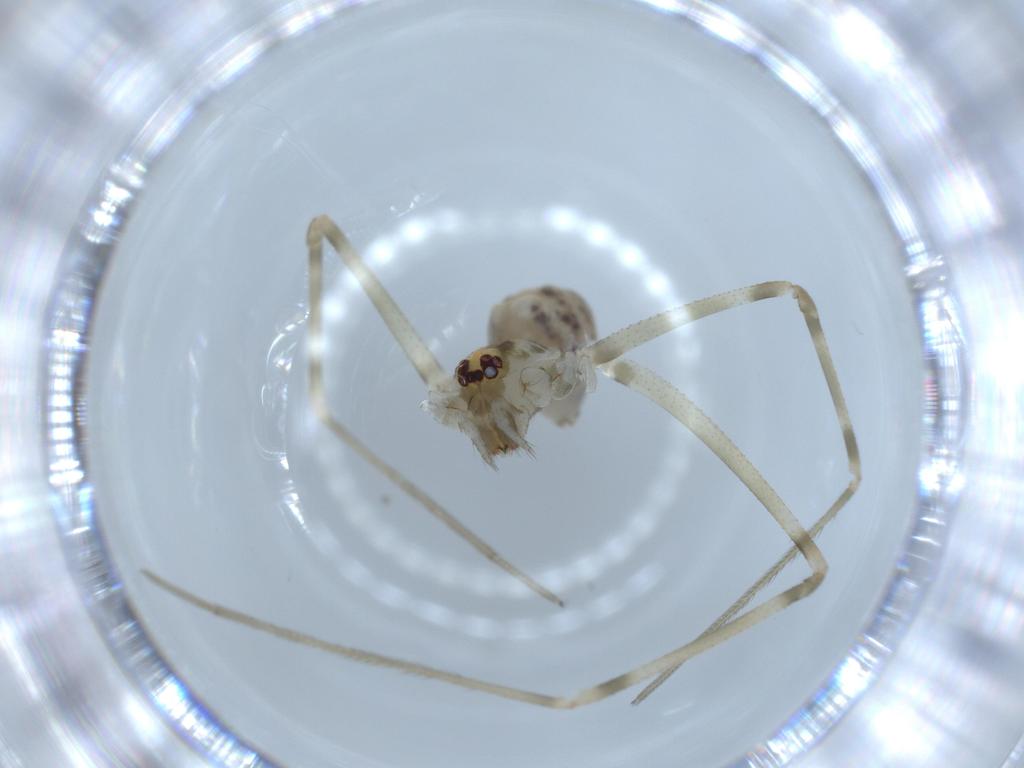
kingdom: Animalia
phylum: Arthropoda
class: Arachnida
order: Araneae
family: Pholcidae
